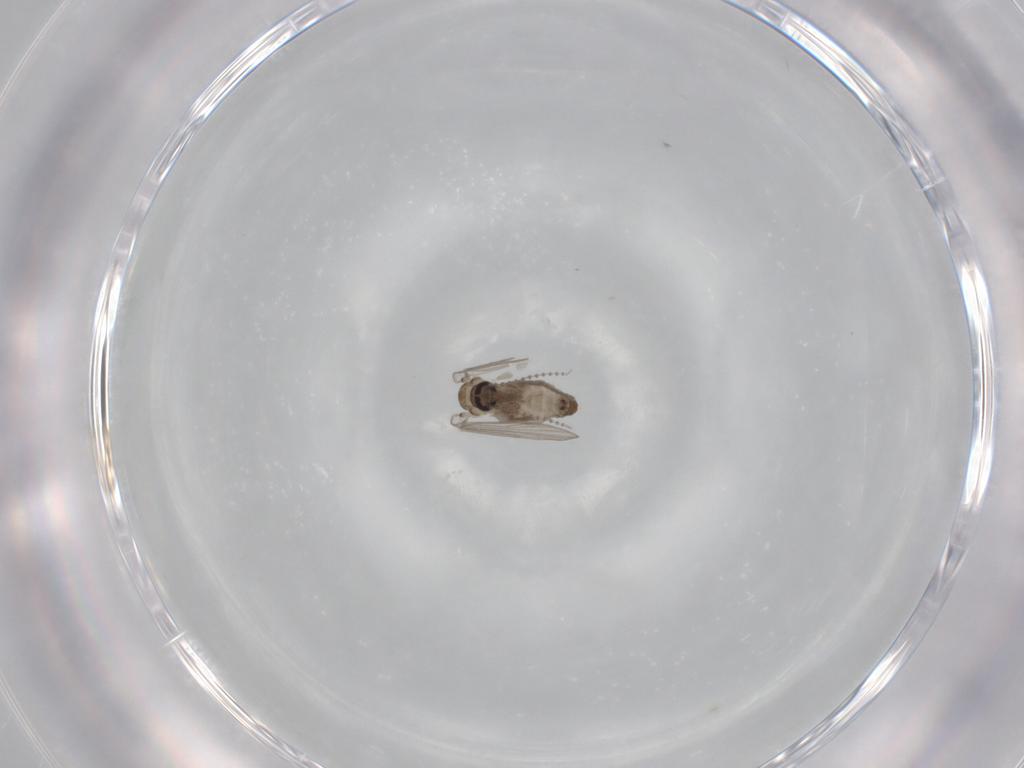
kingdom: Animalia
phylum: Arthropoda
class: Insecta
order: Diptera
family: Psychodidae
